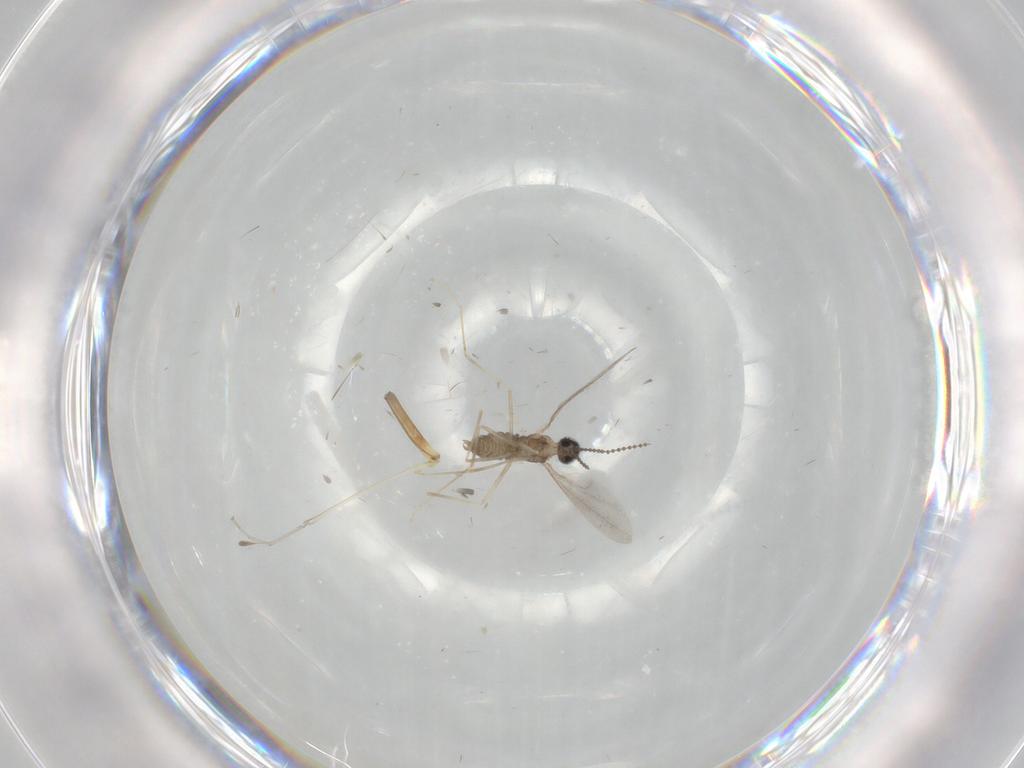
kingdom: Animalia
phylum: Arthropoda
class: Insecta
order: Diptera
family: Cecidomyiidae
